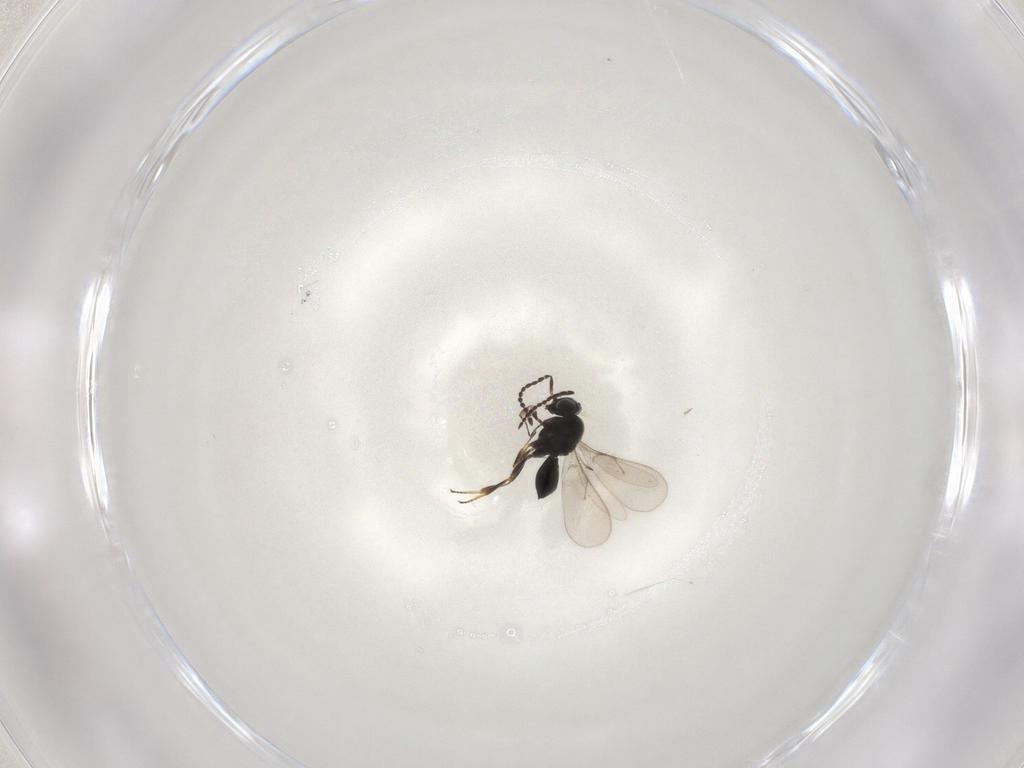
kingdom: Animalia
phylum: Arthropoda
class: Insecta
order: Hymenoptera
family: Scelionidae
